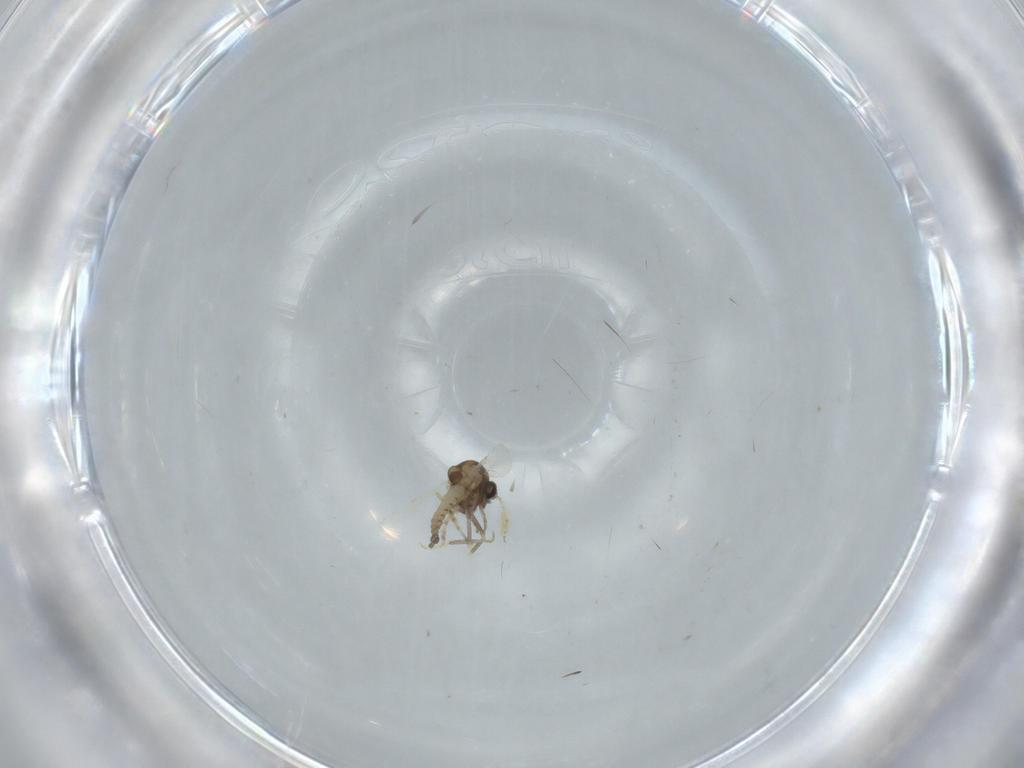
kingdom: Animalia
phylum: Arthropoda
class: Insecta
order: Diptera
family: Ceratopogonidae
